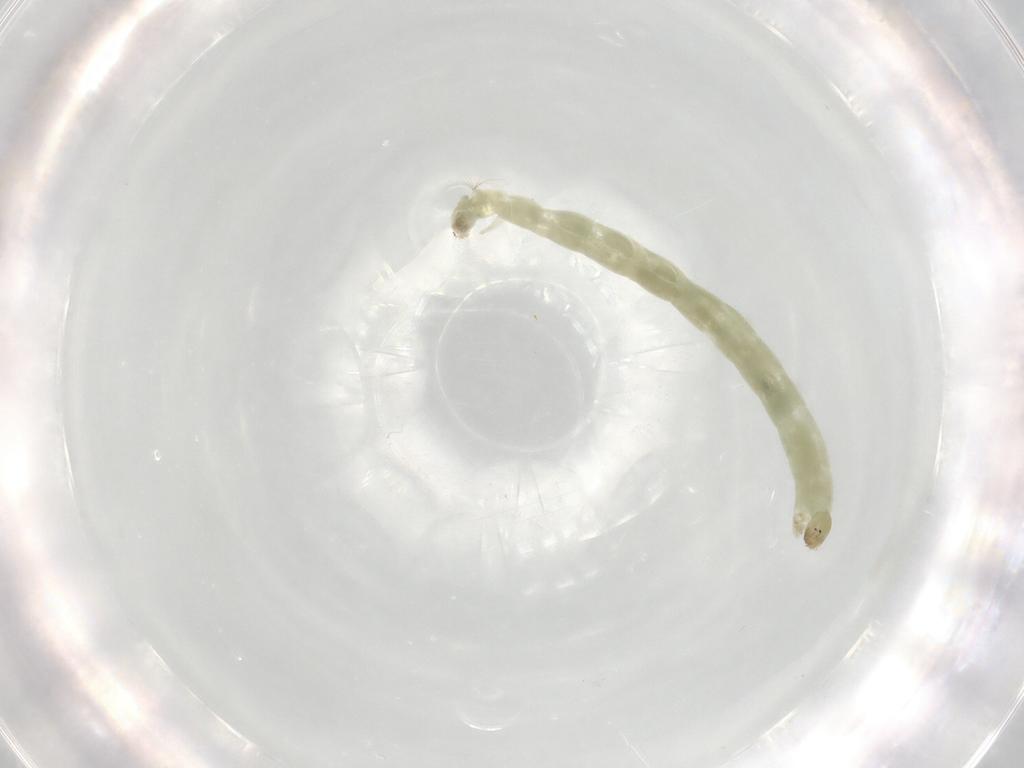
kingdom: Animalia
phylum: Arthropoda
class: Insecta
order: Diptera
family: Chironomidae
